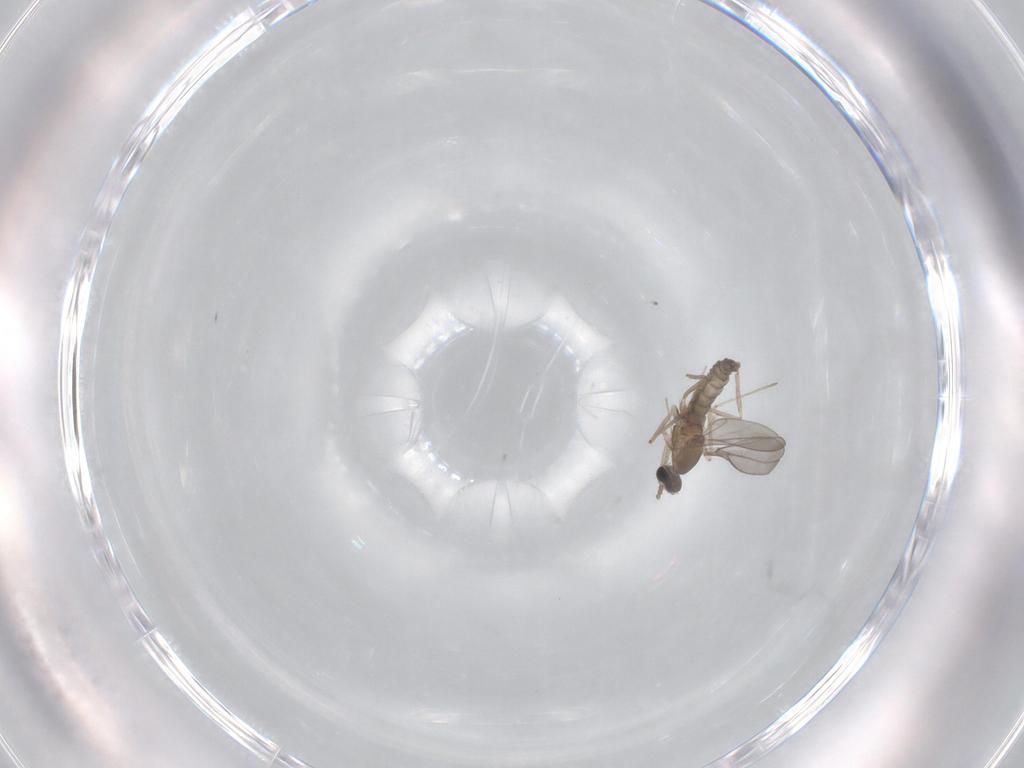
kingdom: Animalia
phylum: Arthropoda
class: Insecta
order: Diptera
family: Cecidomyiidae
